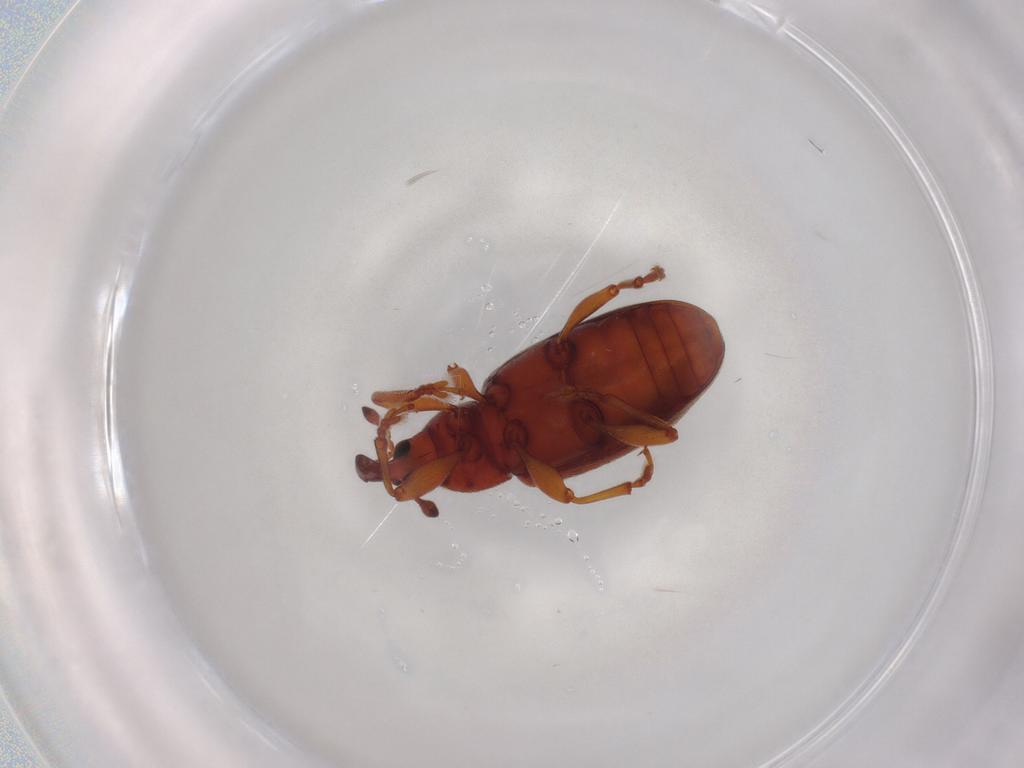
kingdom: Animalia
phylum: Arthropoda
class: Insecta
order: Coleoptera
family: Curculionidae
